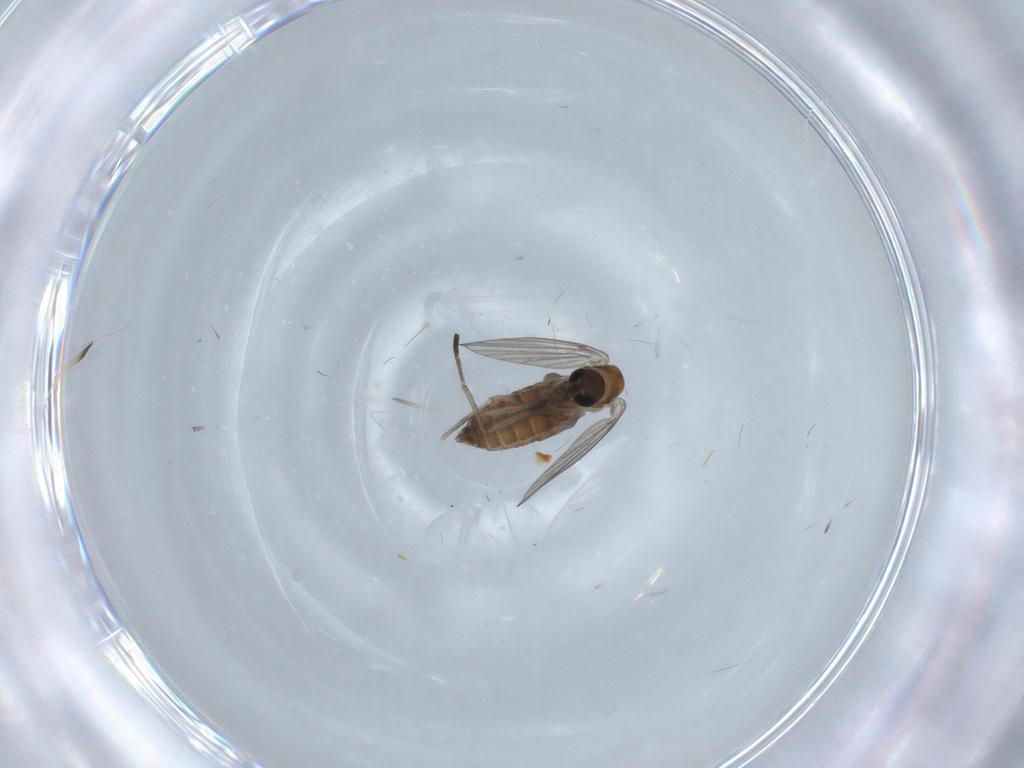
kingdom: Animalia
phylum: Arthropoda
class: Insecta
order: Diptera
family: Psychodidae
